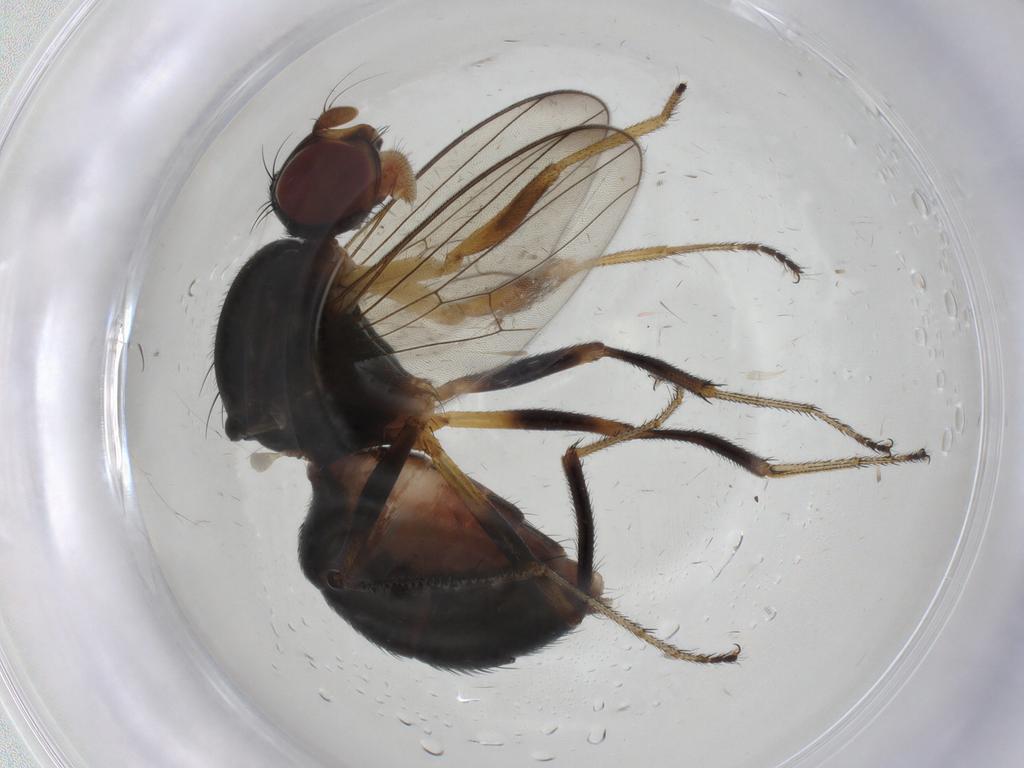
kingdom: Animalia
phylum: Arthropoda
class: Insecta
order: Diptera
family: Sepsidae
